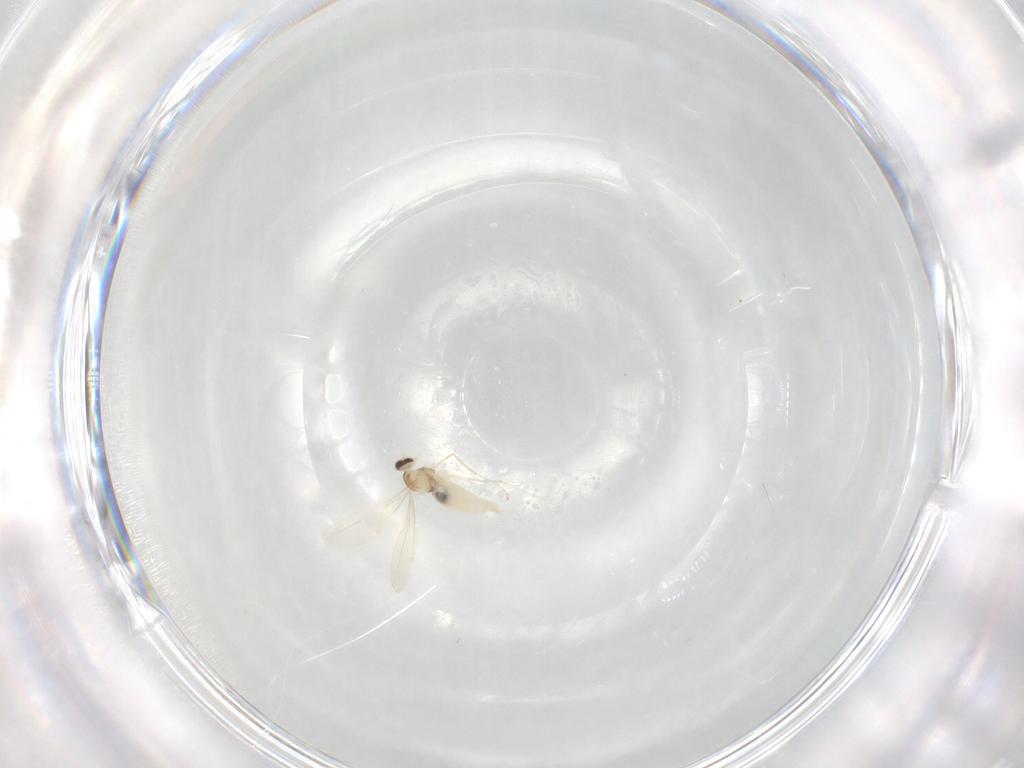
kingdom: Animalia
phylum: Arthropoda
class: Insecta
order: Diptera
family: Cecidomyiidae
